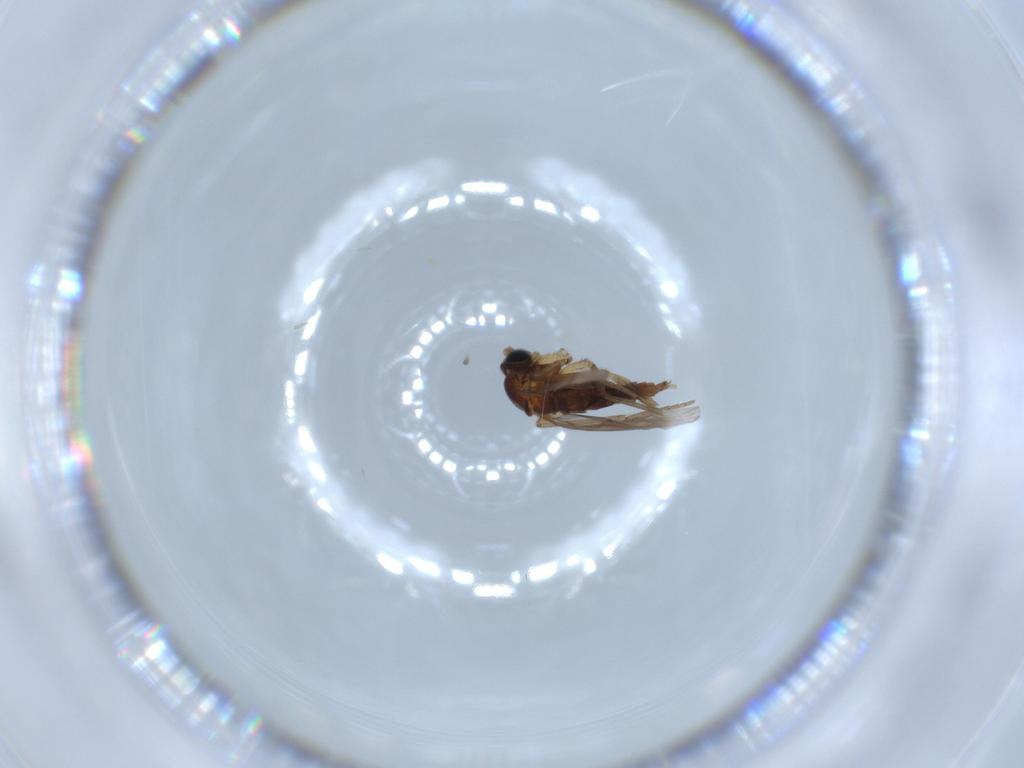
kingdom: Animalia
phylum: Arthropoda
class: Insecta
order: Diptera
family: Sciaridae
